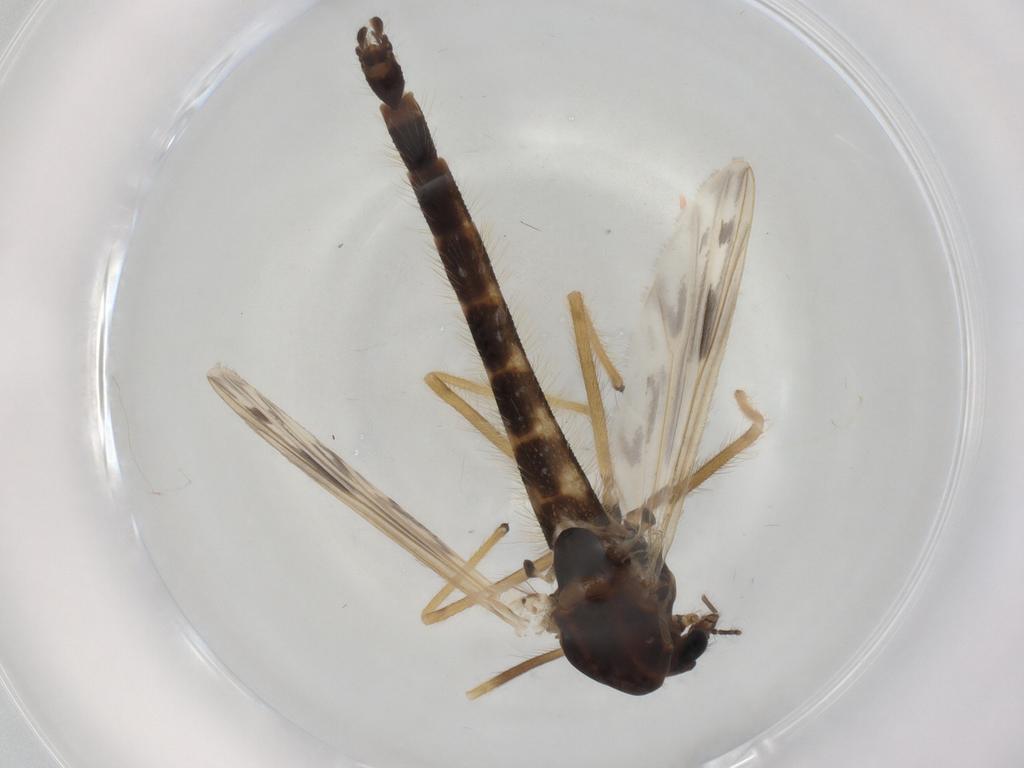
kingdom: Animalia
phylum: Arthropoda
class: Insecta
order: Diptera
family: Chironomidae
